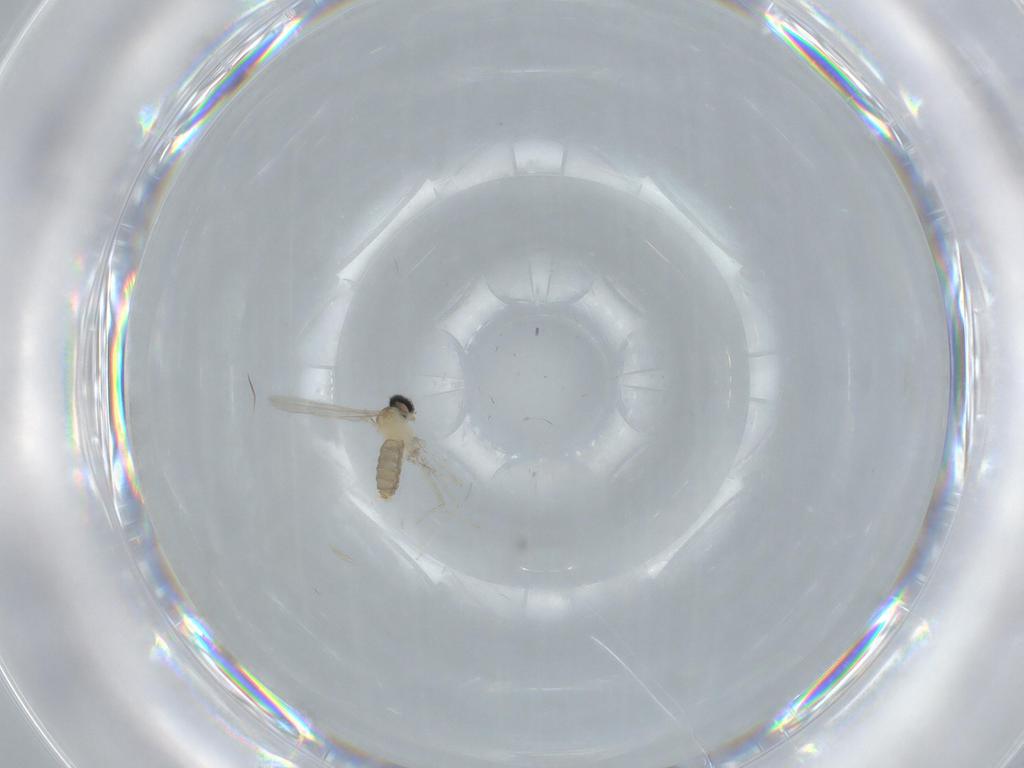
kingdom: Animalia
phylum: Arthropoda
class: Insecta
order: Diptera
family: Cecidomyiidae
